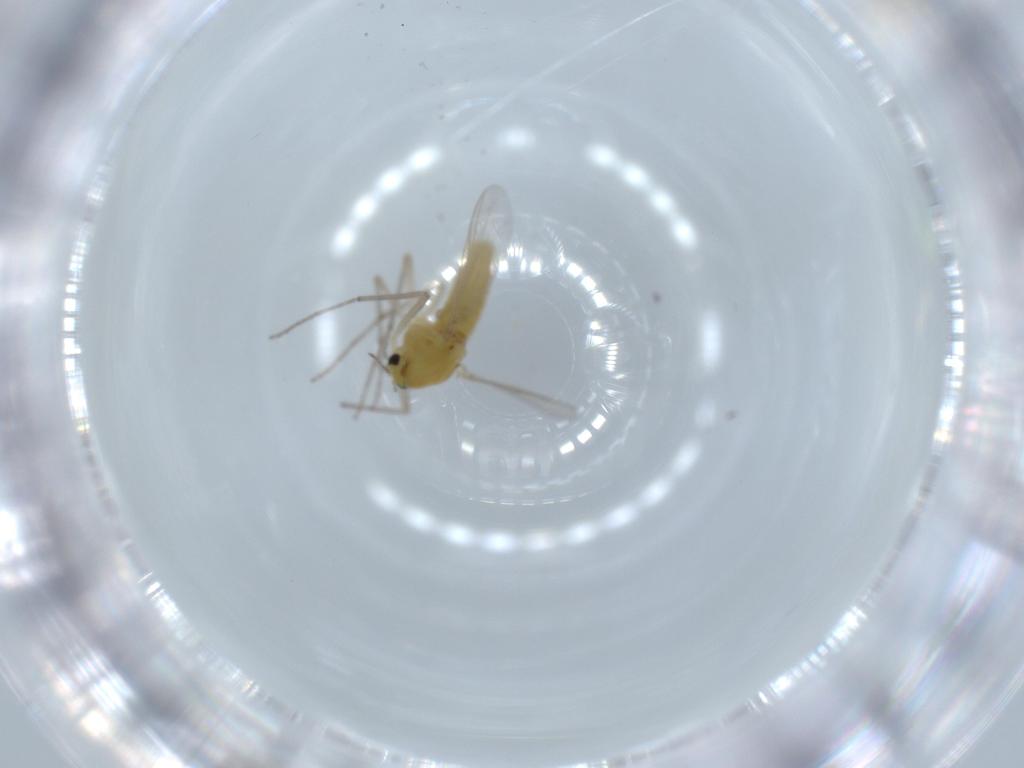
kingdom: Animalia
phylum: Arthropoda
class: Insecta
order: Diptera
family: Chironomidae
